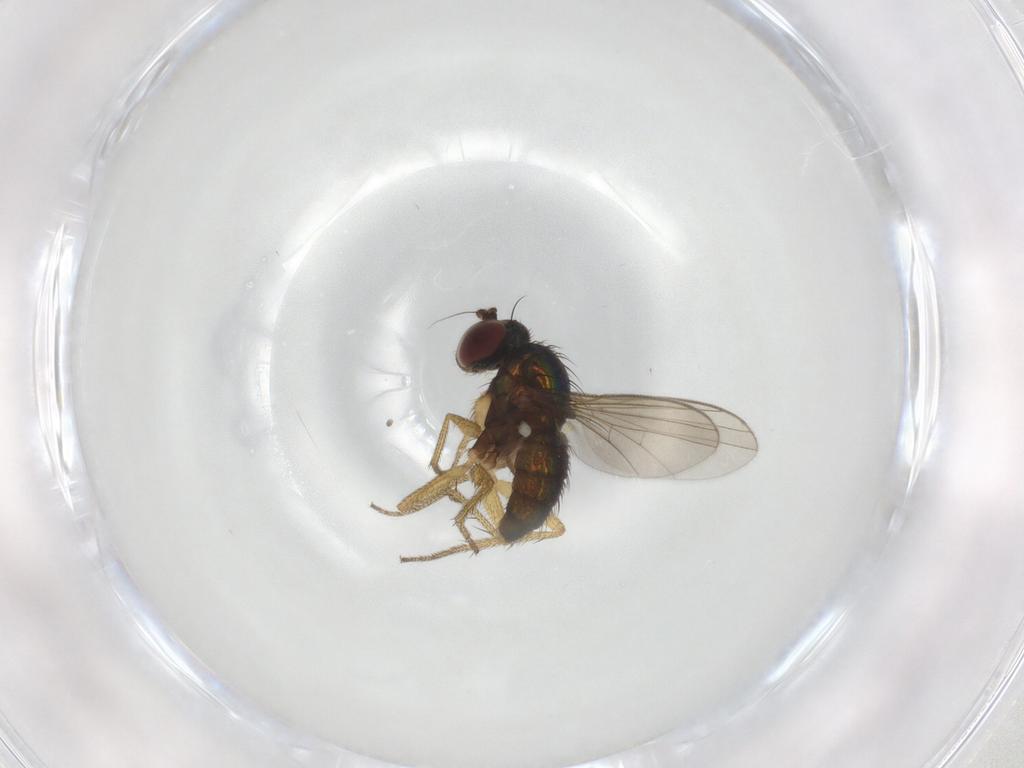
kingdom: Animalia
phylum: Arthropoda
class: Insecta
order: Diptera
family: Dolichopodidae
